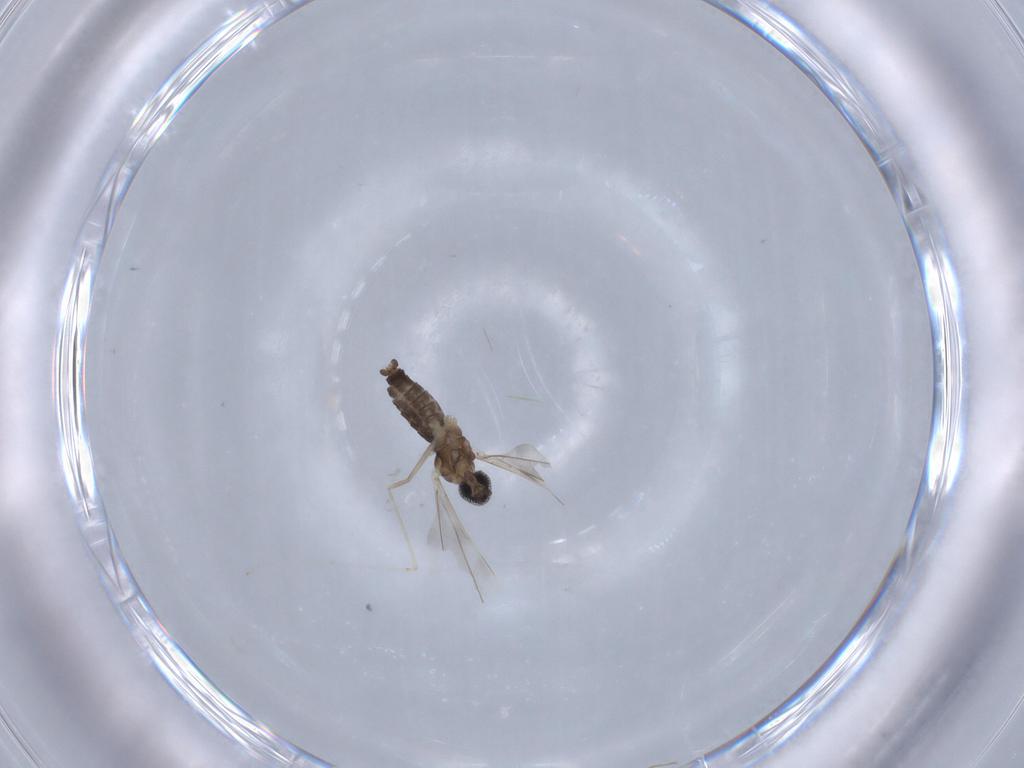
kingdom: Animalia
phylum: Arthropoda
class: Insecta
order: Diptera
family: Cecidomyiidae
